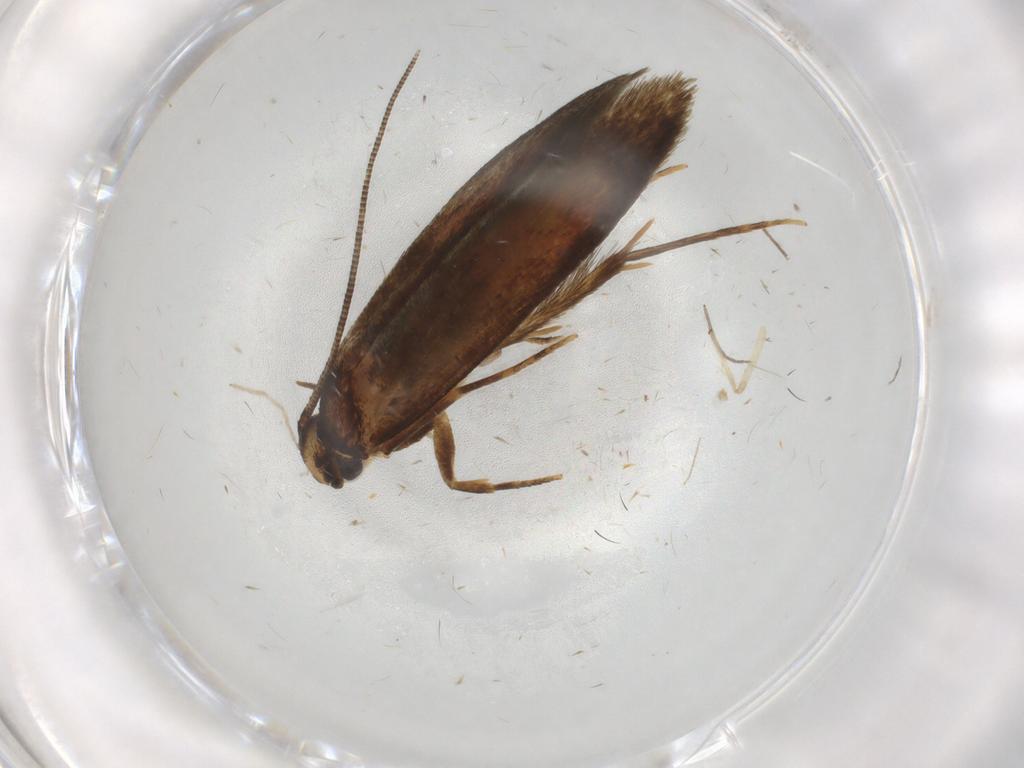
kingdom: Animalia
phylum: Arthropoda
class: Insecta
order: Lepidoptera
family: Tineidae
